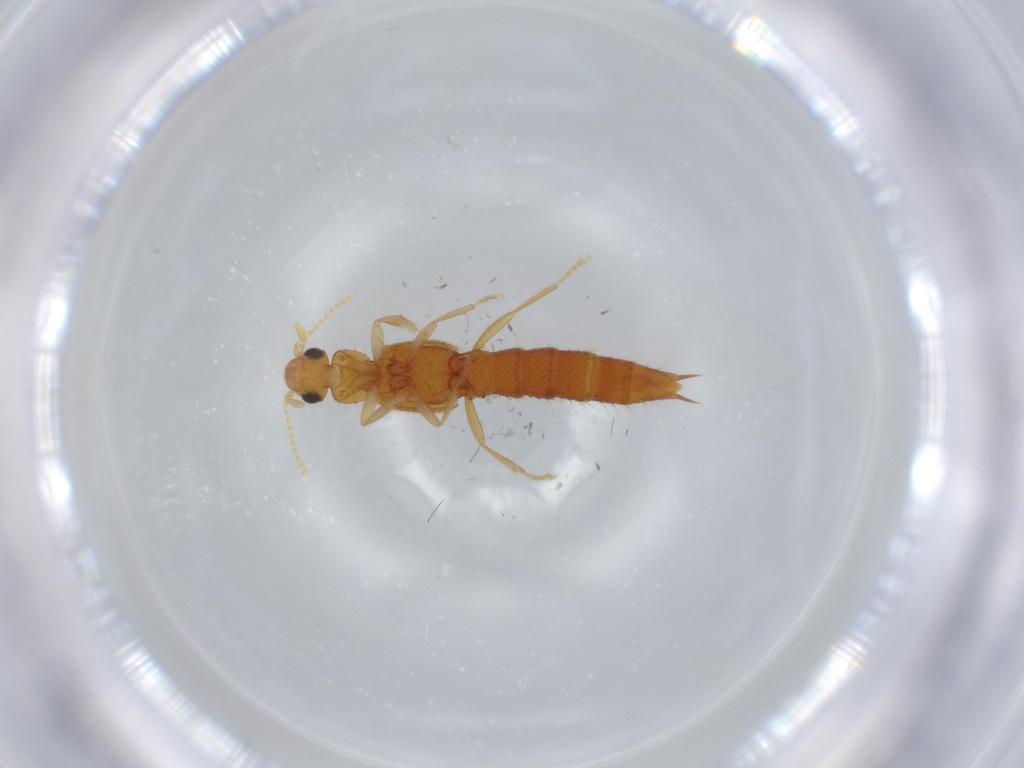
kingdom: Animalia
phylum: Arthropoda
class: Insecta
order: Coleoptera
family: Staphylinidae
